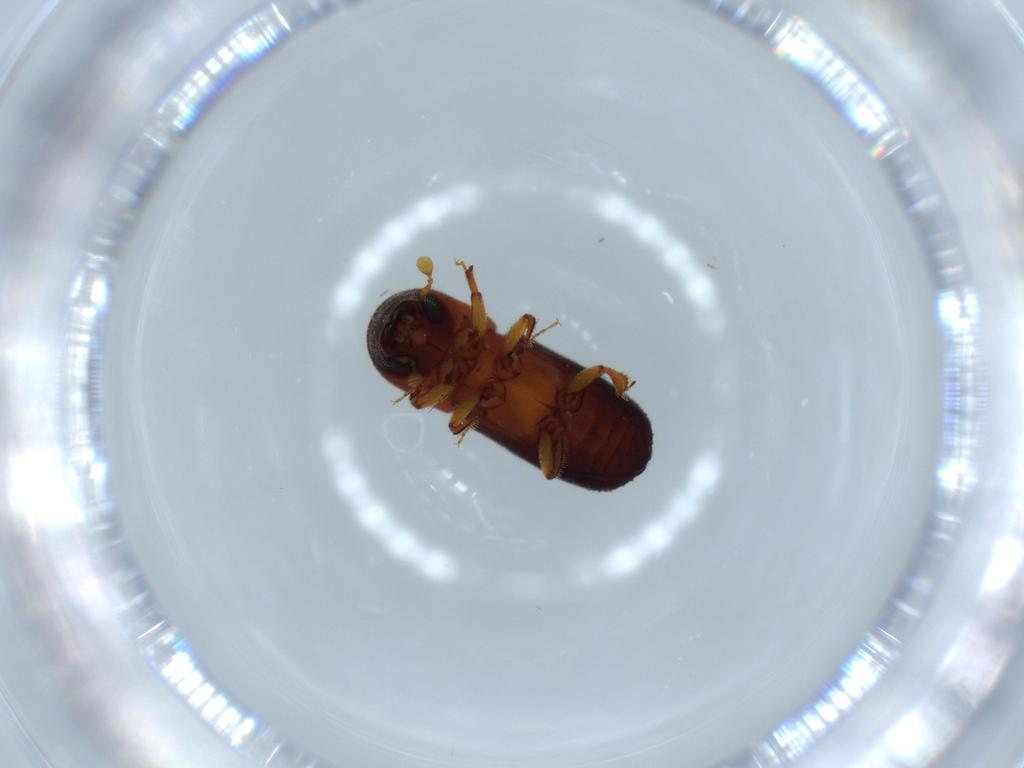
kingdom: Animalia
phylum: Arthropoda
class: Insecta
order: Coleoptera
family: Curculionidae
